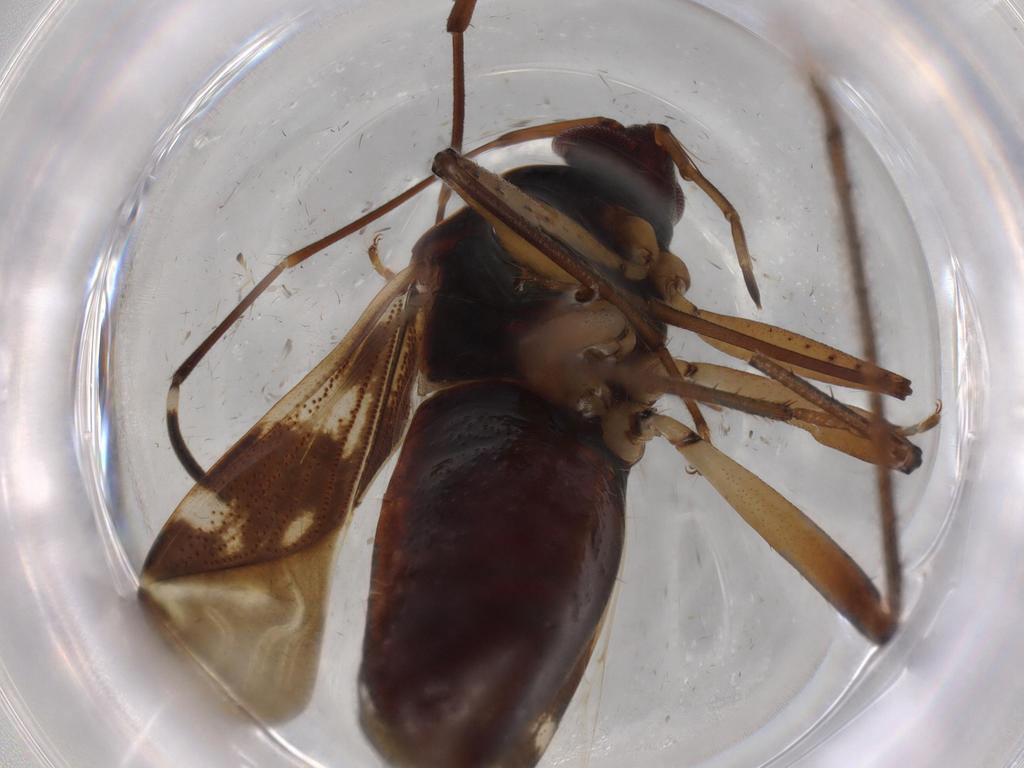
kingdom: Animalia
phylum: Arthropoda
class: Insecta
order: Hemiptera
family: Rhyparochromidae
